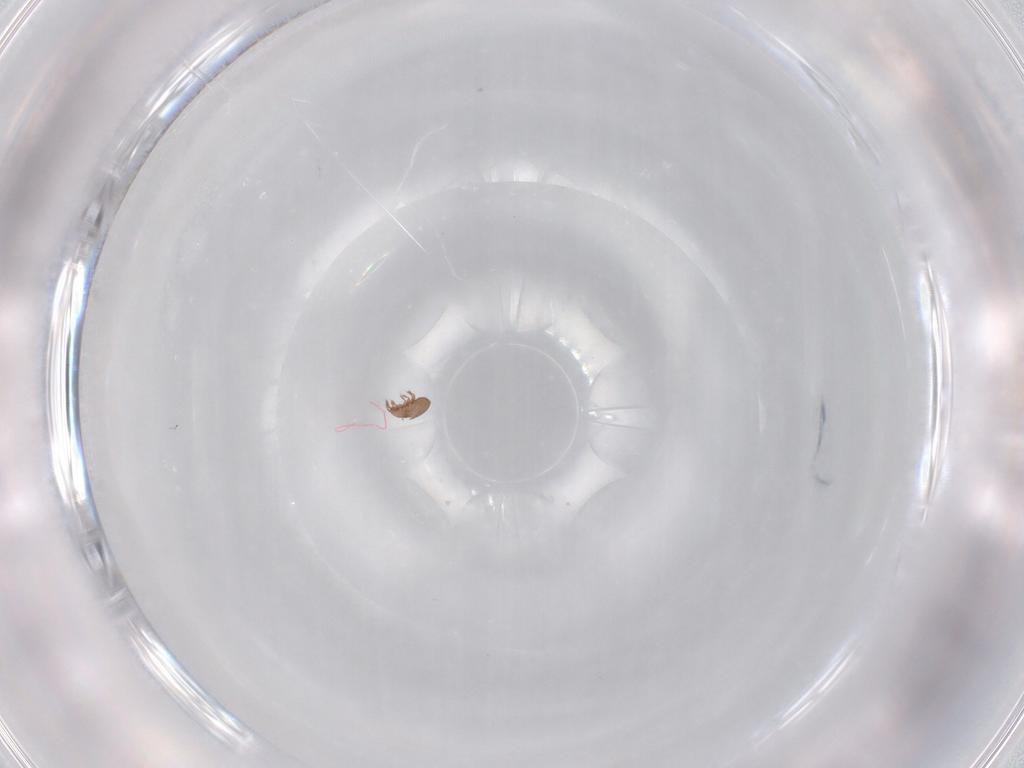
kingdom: Animalia
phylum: Arthropoda
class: Arachnida
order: Sarcoptiformes
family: Eremaeidae
